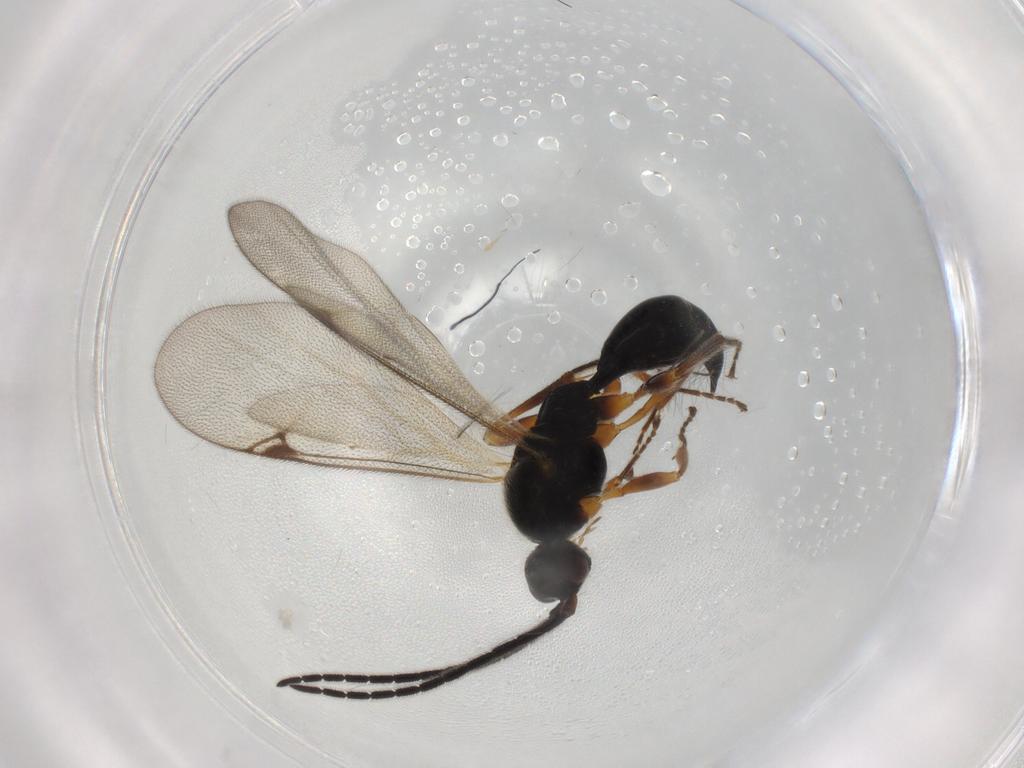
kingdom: Animalia
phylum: Arthropoda
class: Insecta
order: Hymenoptera
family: Proctotrupidae
